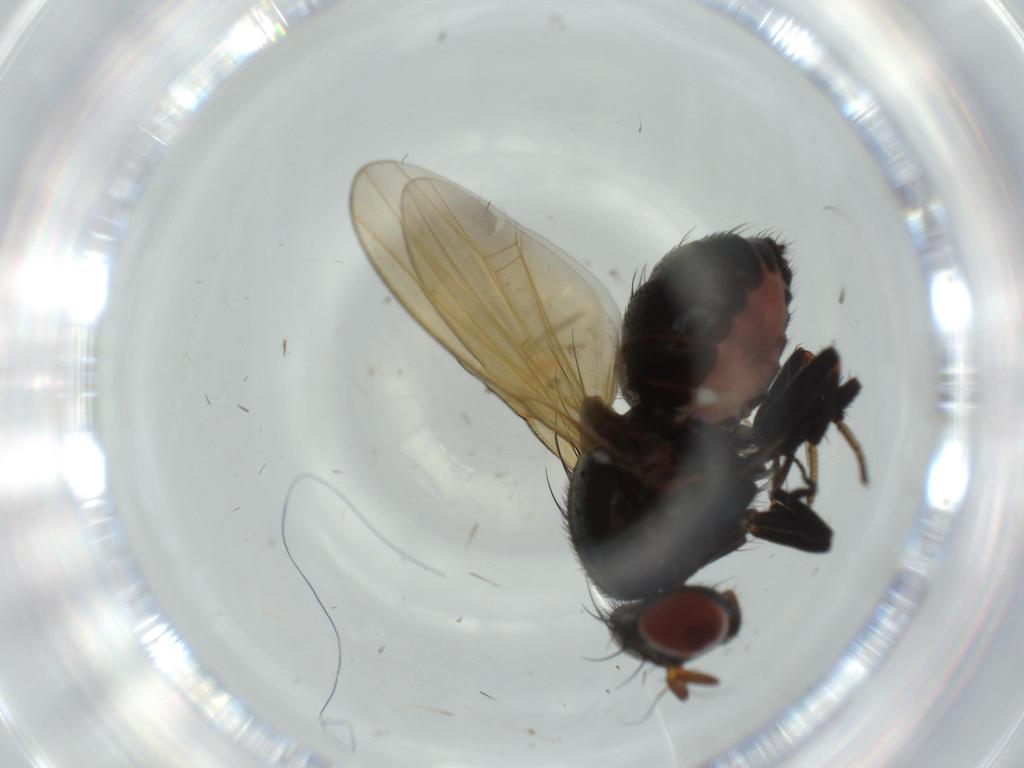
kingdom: Animalia
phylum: Arthropoda
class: Insecta
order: Diptera
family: Lauxaniidae
